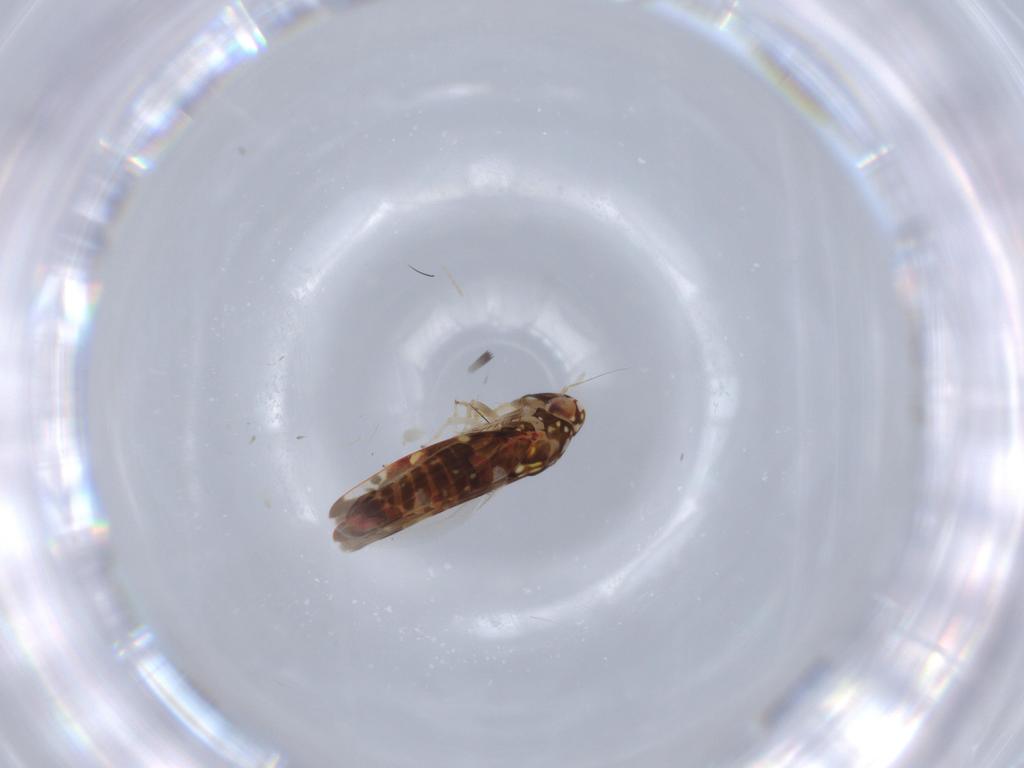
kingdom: Animalia
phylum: Arthropoda
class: Insecta
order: Hemiptera
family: Cicadellidae
